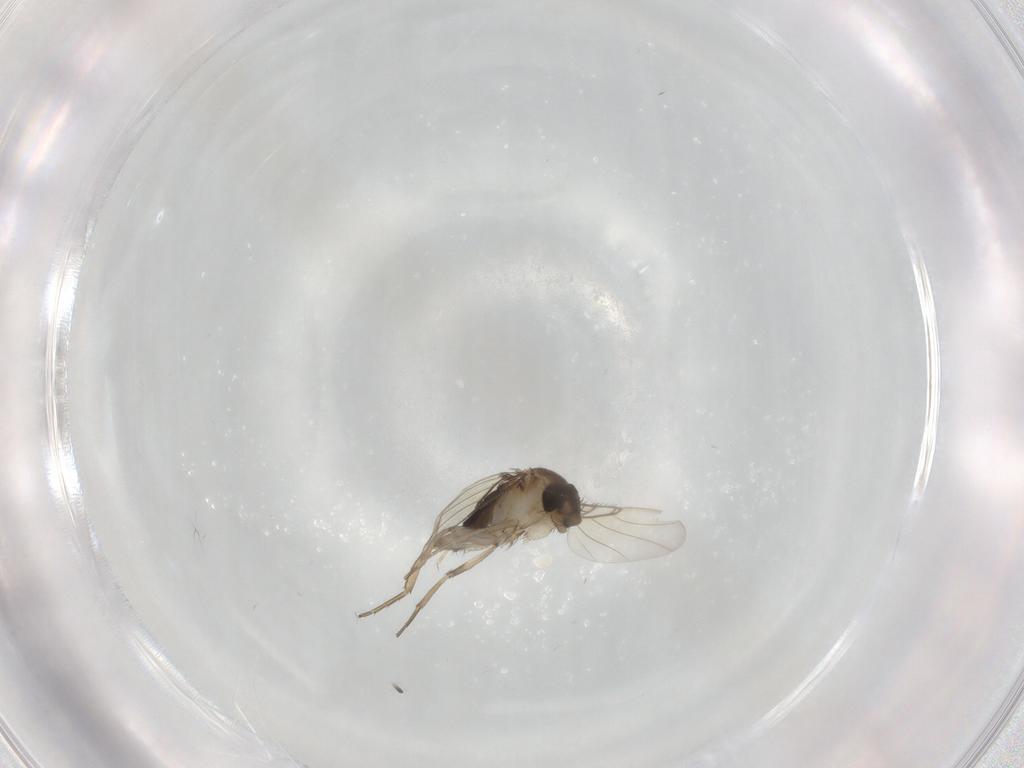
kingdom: Animalia
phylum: Arthropoda
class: Insecta
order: Diptera
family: Phoridae
